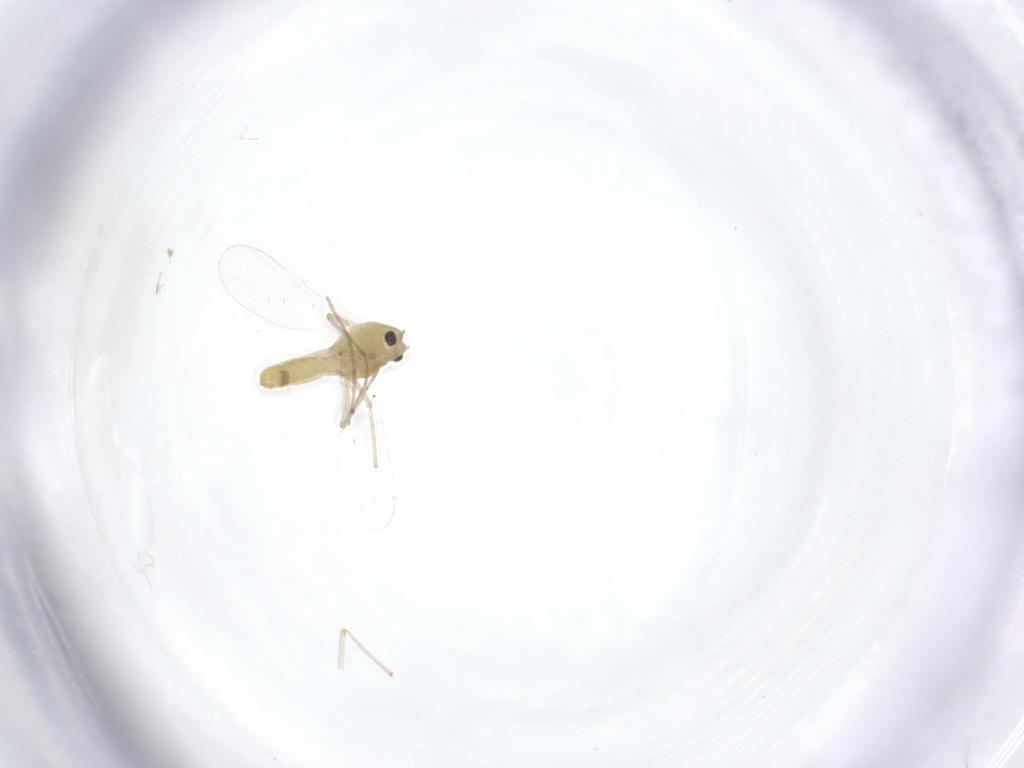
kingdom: Animalia
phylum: Arthropoda
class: Insecta
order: Diptera
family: Chironomidae
